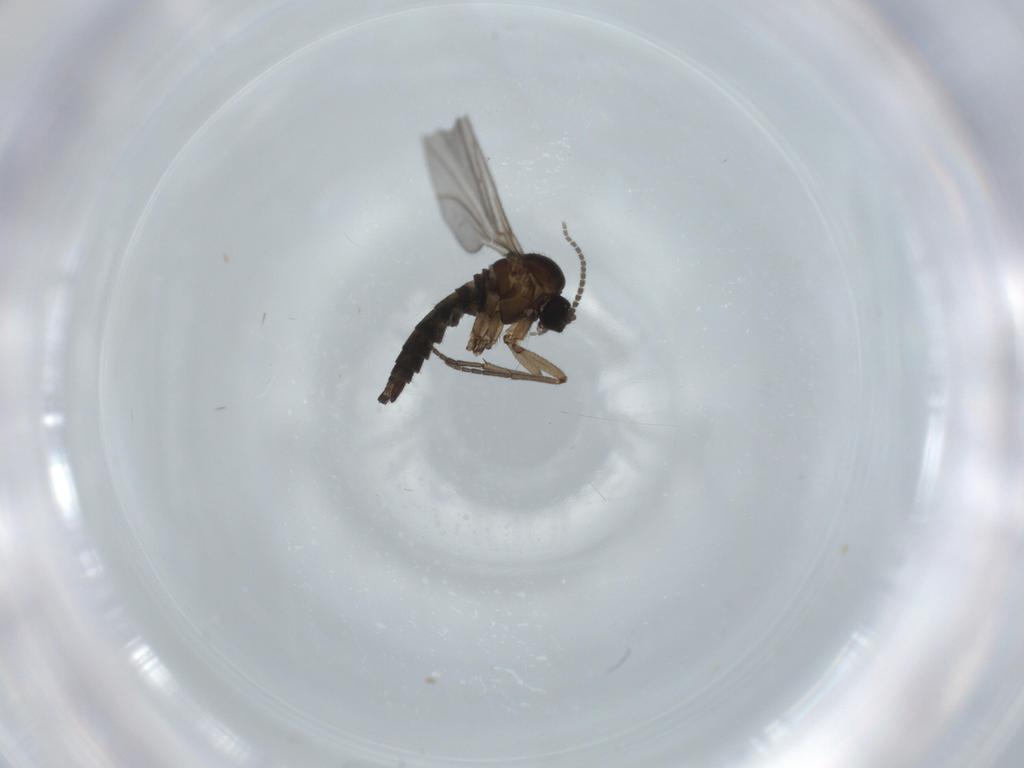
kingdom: Animalia
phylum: Arthropoda
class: Insecta
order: Diptera
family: Sciaridae
